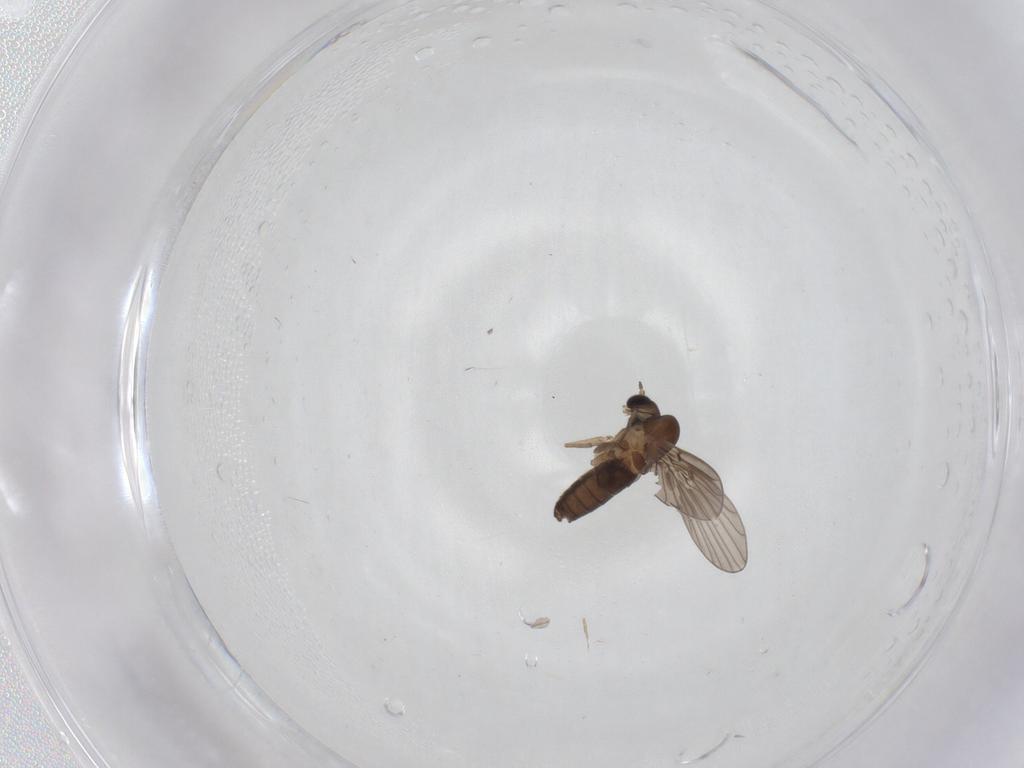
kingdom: Animalia
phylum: Arthropoda
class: Insecta
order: Diptera
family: Psychodidae
